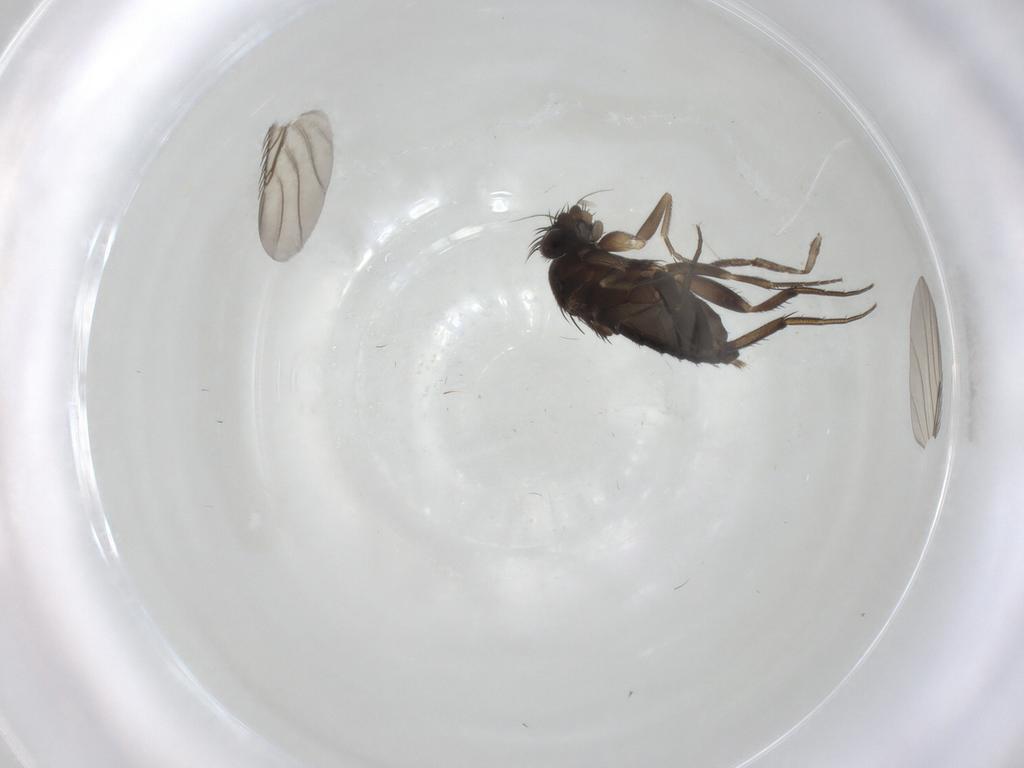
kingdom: Animalia
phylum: Arthropoda
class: Insecta
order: Diptera
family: Phoridae
